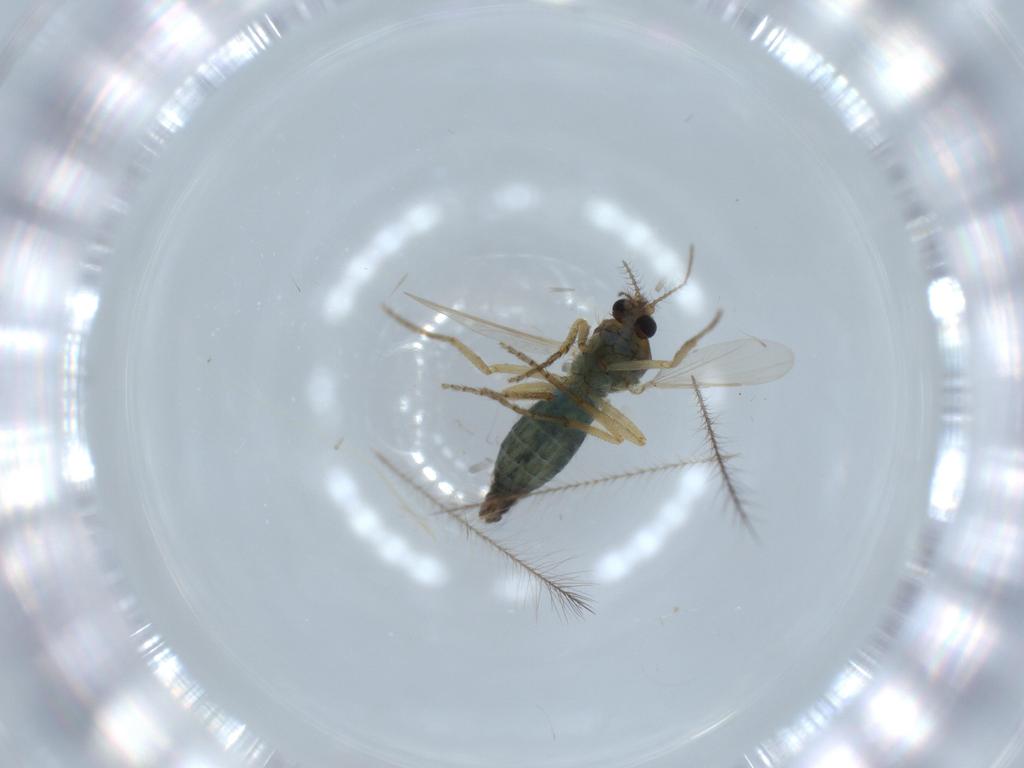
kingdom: Animalia
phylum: Arthropoda
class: Insecta
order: Diptera
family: Ceratopogonidae
